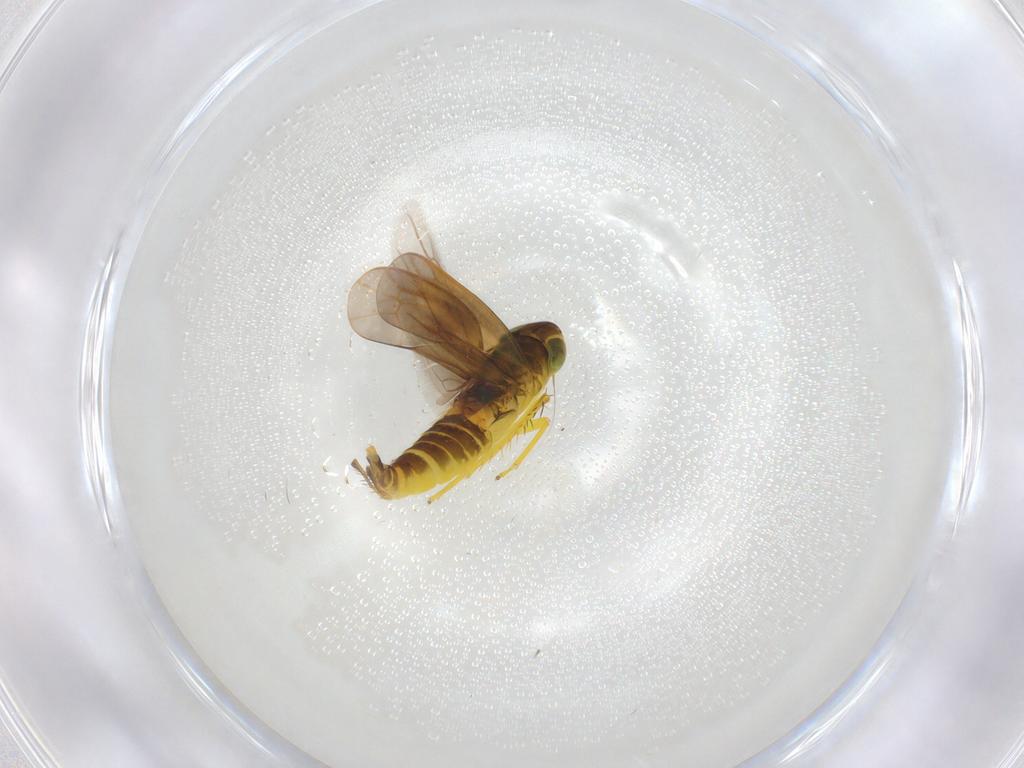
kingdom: Animalia
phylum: Arthropoda
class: Insecta
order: Hemiptera
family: Cicadellidae
